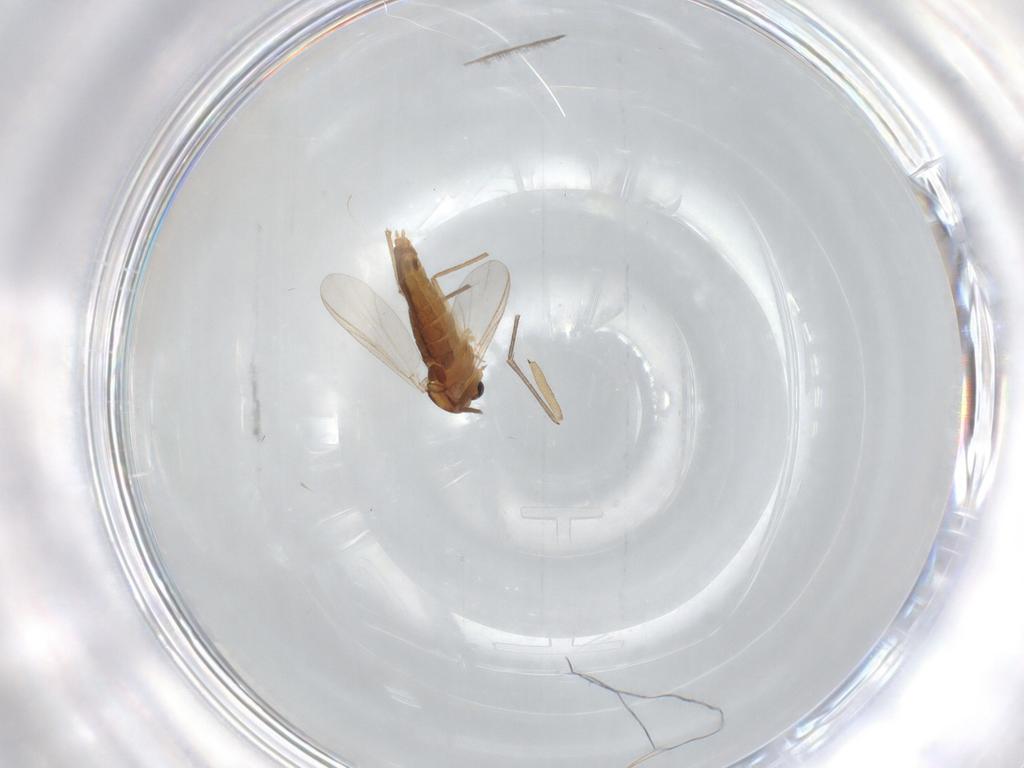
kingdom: Animalia
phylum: Arthropoda
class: Insecta
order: Diptera
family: Chironomidae
